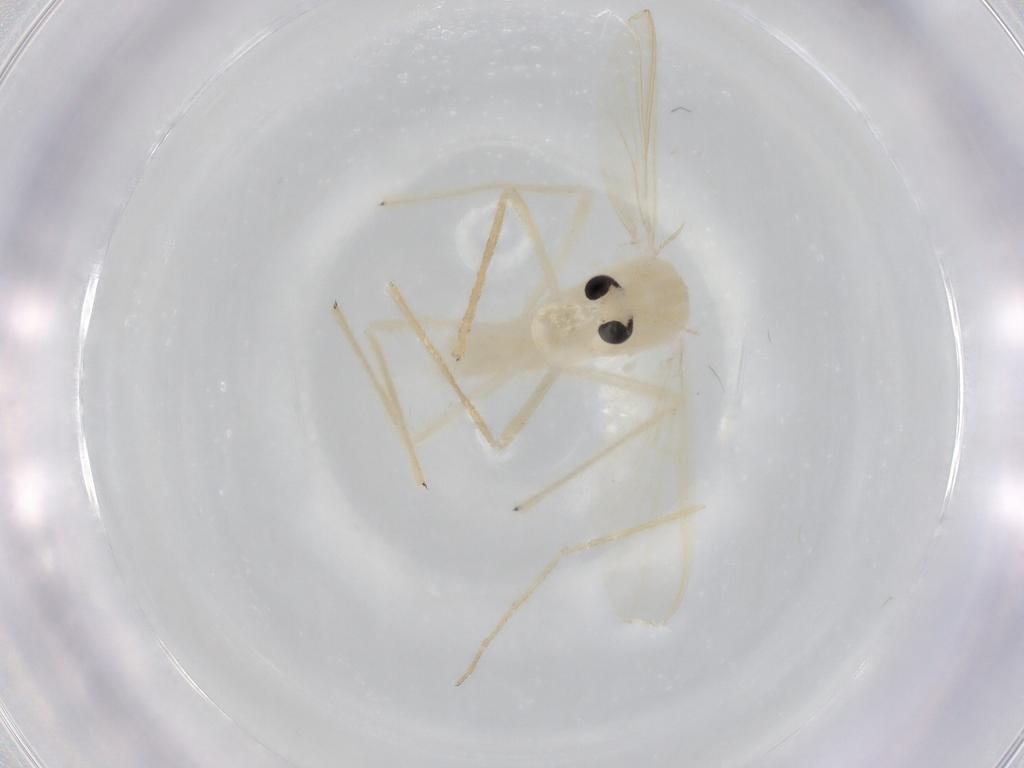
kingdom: Animalia
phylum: Arthropoda
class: Insecta
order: Diptera
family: Chironomidae
